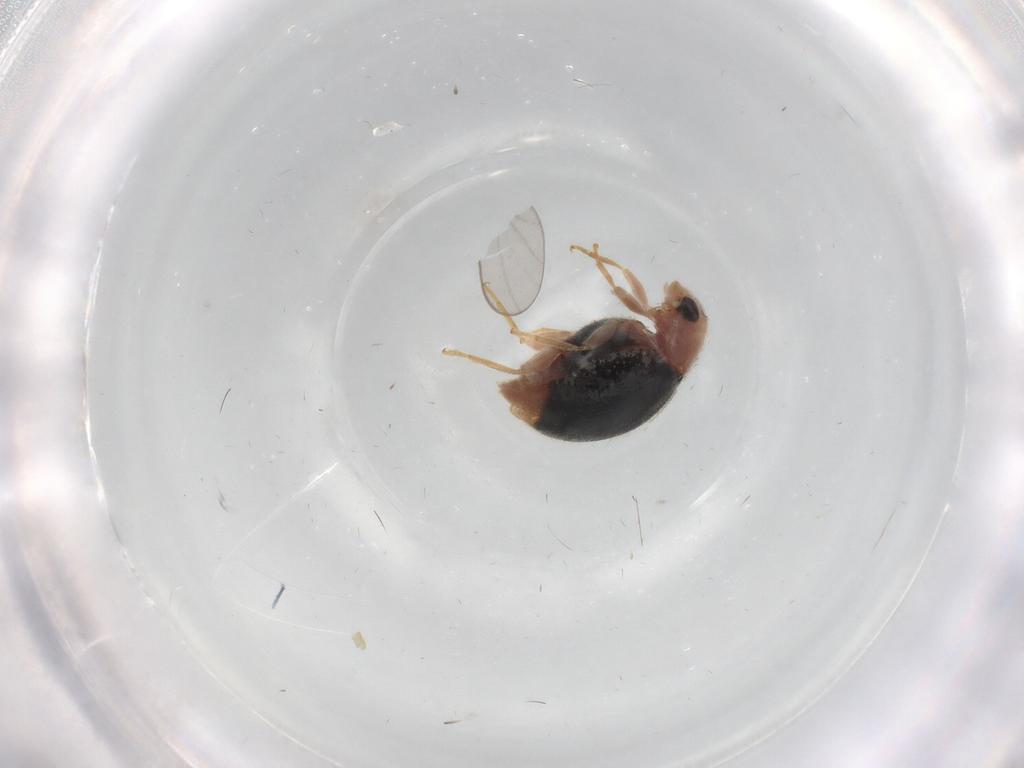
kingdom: Animalia
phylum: Arthropoda
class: Insecta
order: Coleoptera
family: Coccinellidae
